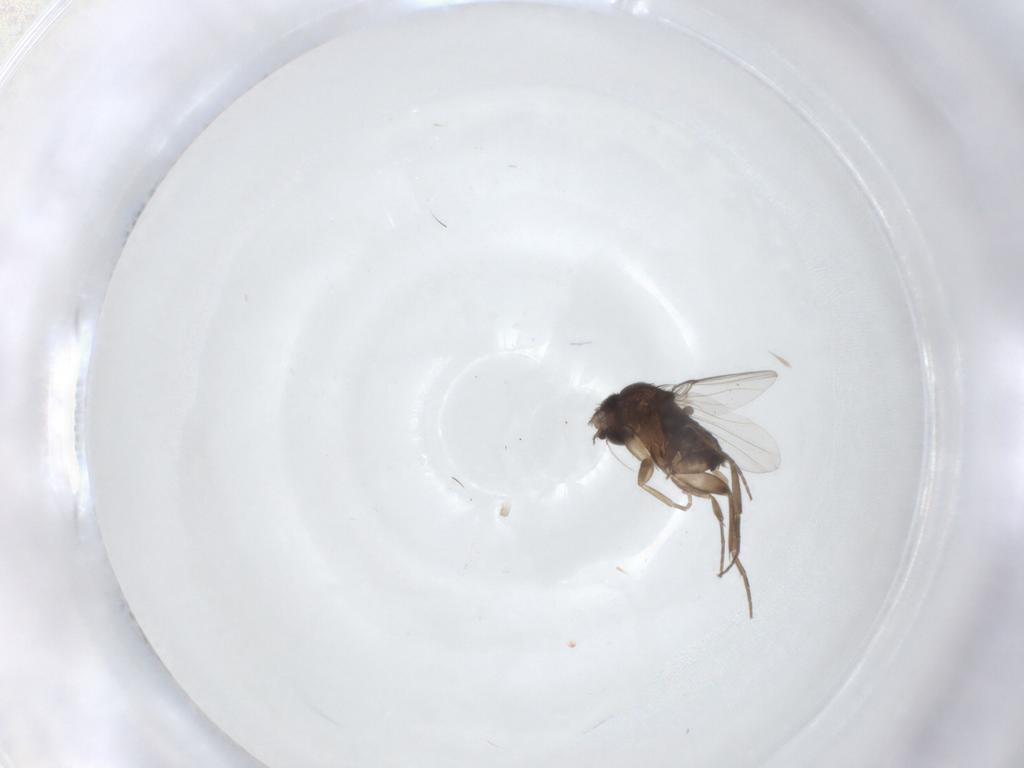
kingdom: Animalia
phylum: Arthropoda
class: Insecta
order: Diptera
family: Phoridae
